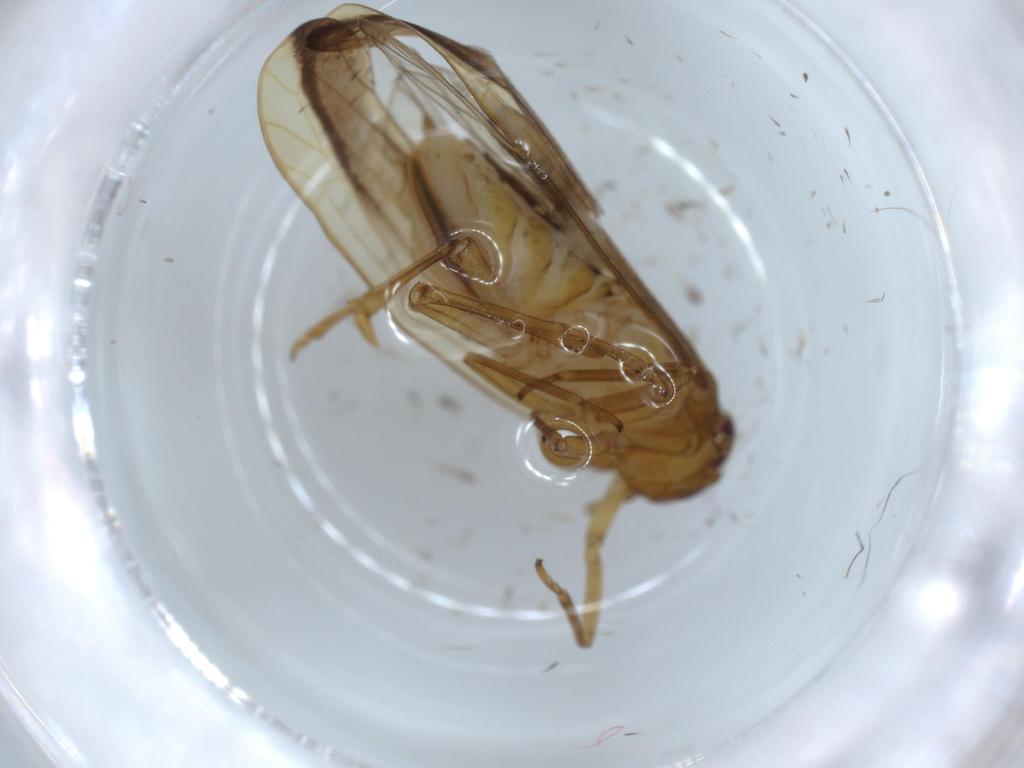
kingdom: Animalia
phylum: Arthropoda
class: Insecta
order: Hemiptera
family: Delphacidae
